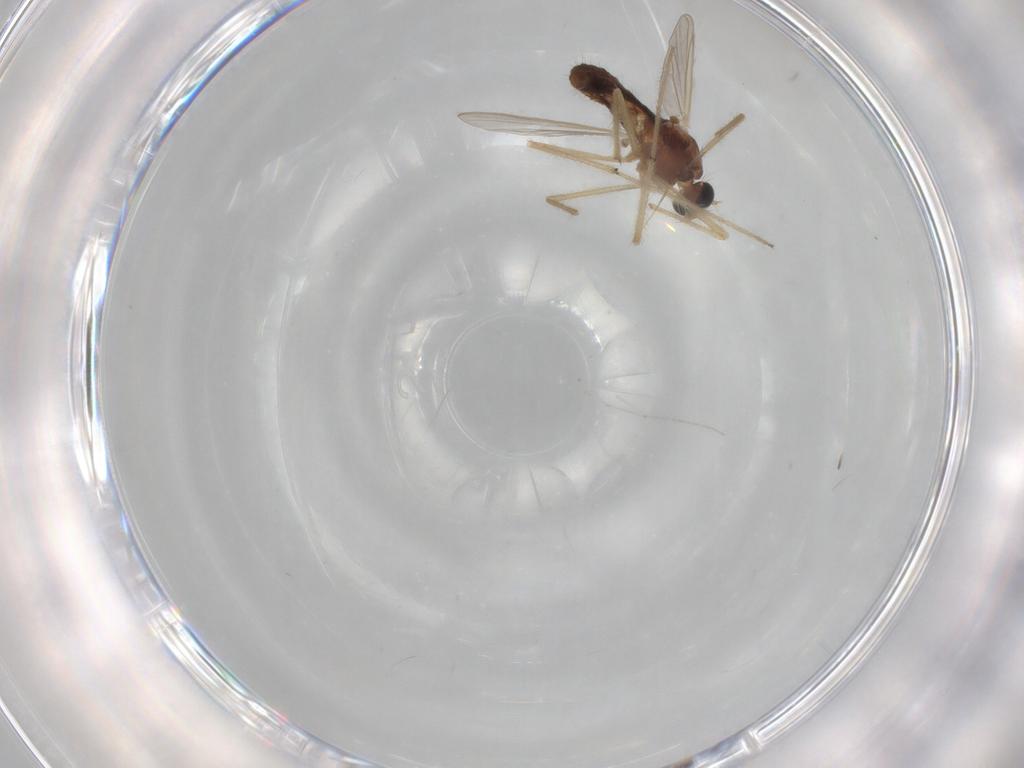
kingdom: Animalia
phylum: Arthropoda
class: Insecta
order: Diptera
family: Chironomidae
